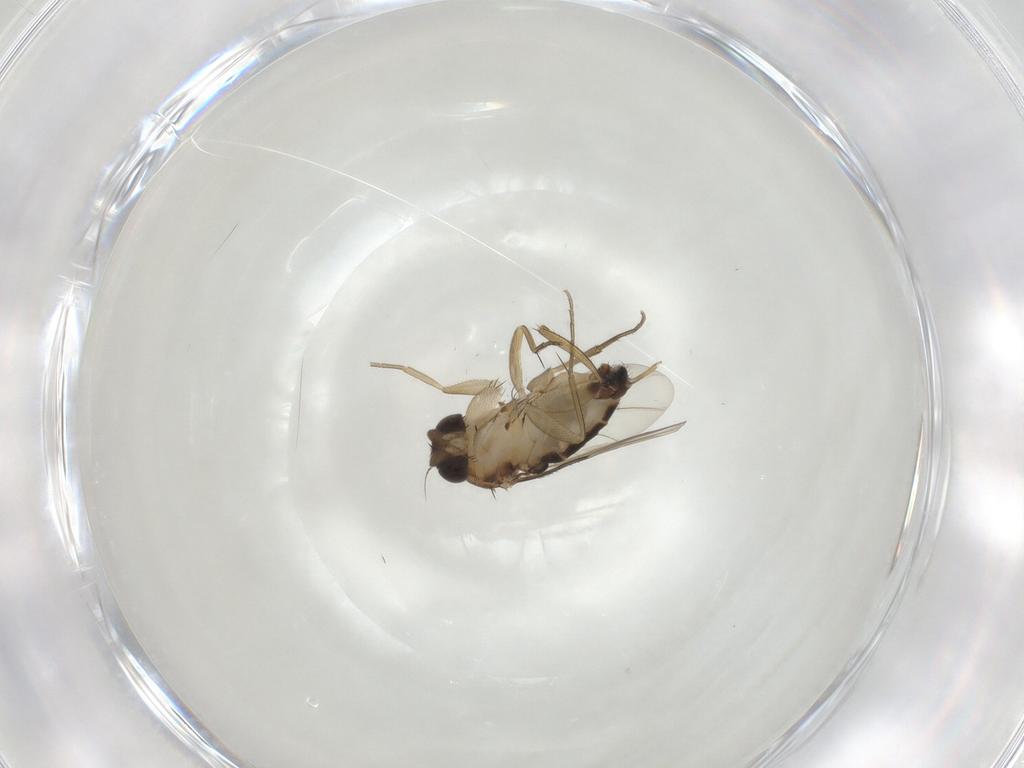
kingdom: Animalia
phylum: Arthropoda
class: Insecta
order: Diptera
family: Phoridae
